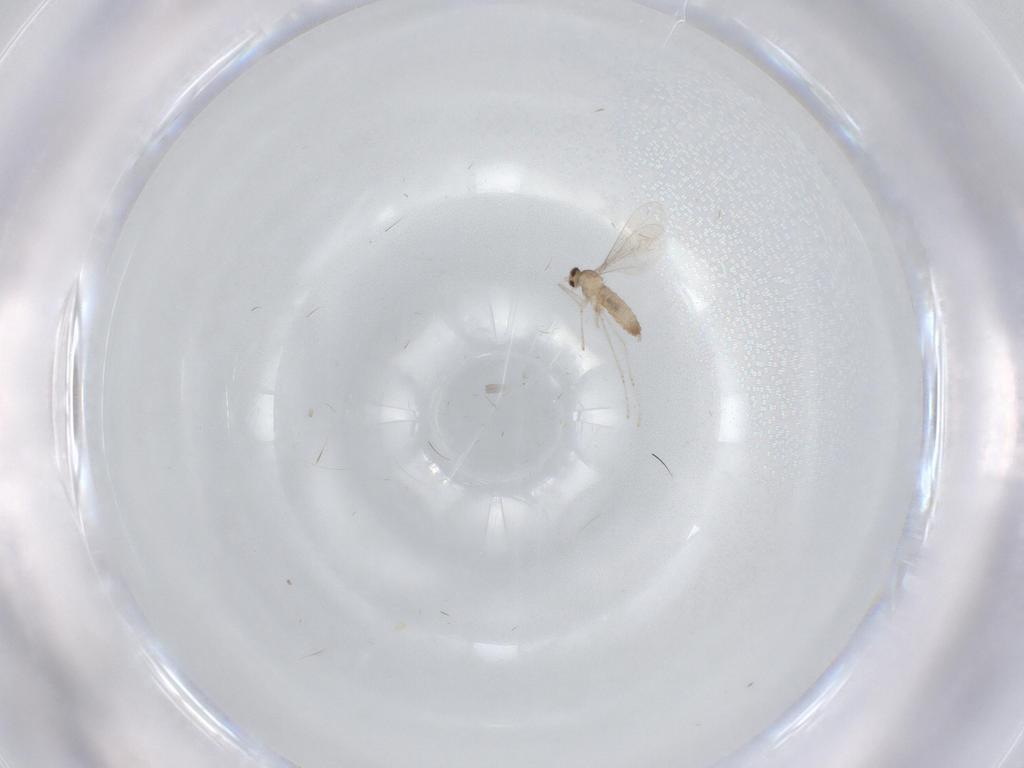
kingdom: Animalia
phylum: Arthropoda
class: Insecta
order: Diptera
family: Cecidomyiidae
